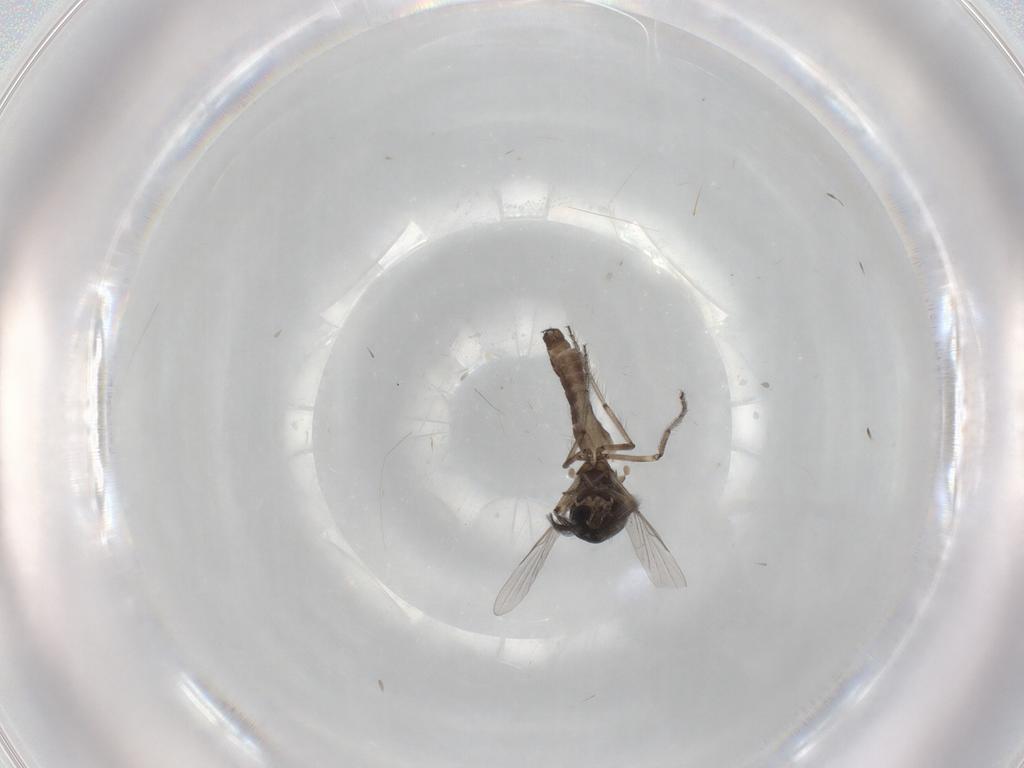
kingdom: Animalia
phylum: Arthropoda
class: Insecta
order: Diptera
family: Ceratopogonidae
